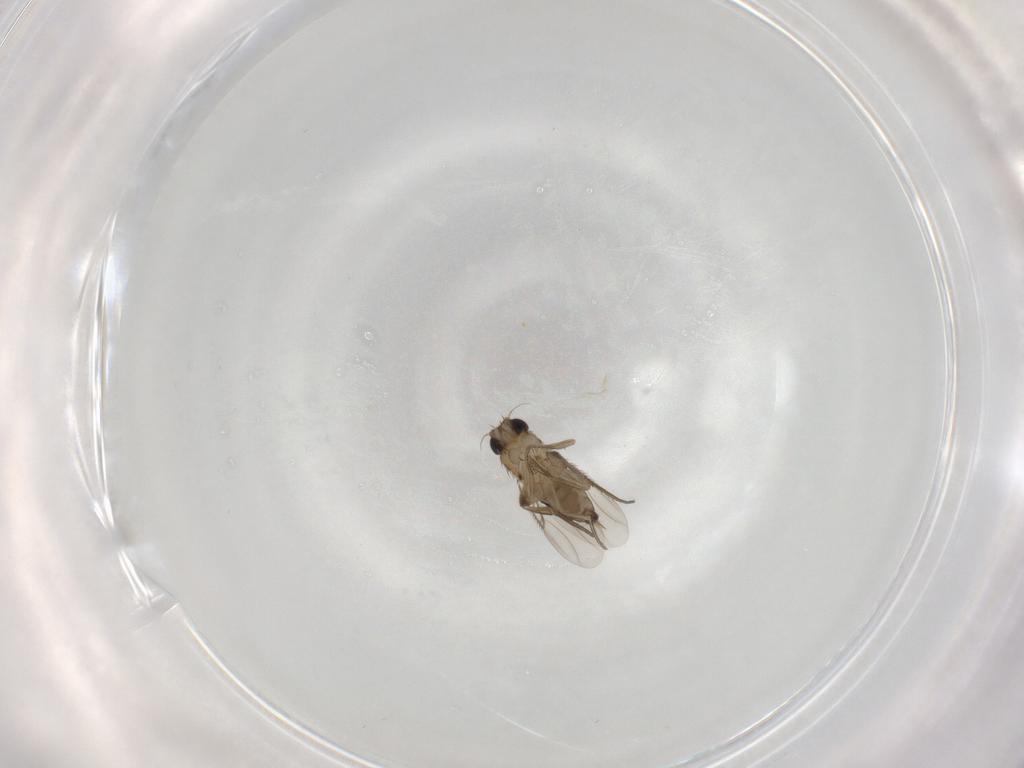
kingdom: Animalia
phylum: Arthropoda
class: Insecta
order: Diptera
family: Phoridae
